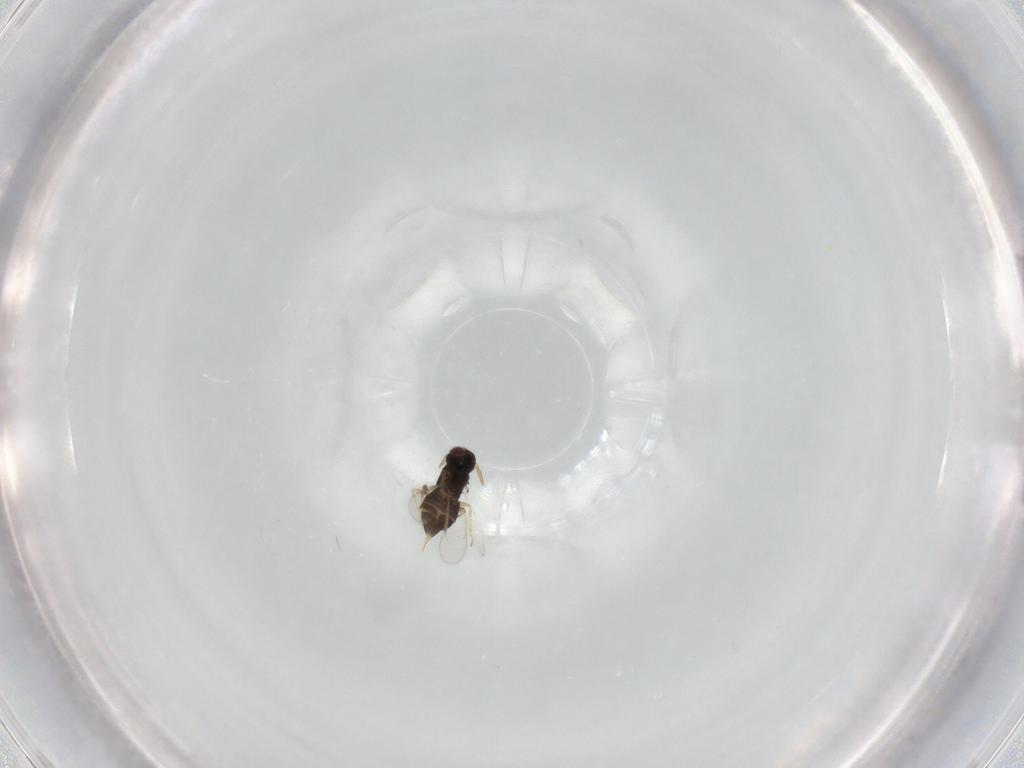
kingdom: Animalia
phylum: Arthropoda
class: Insecta
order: Hymenoptera
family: Aphelinidae
